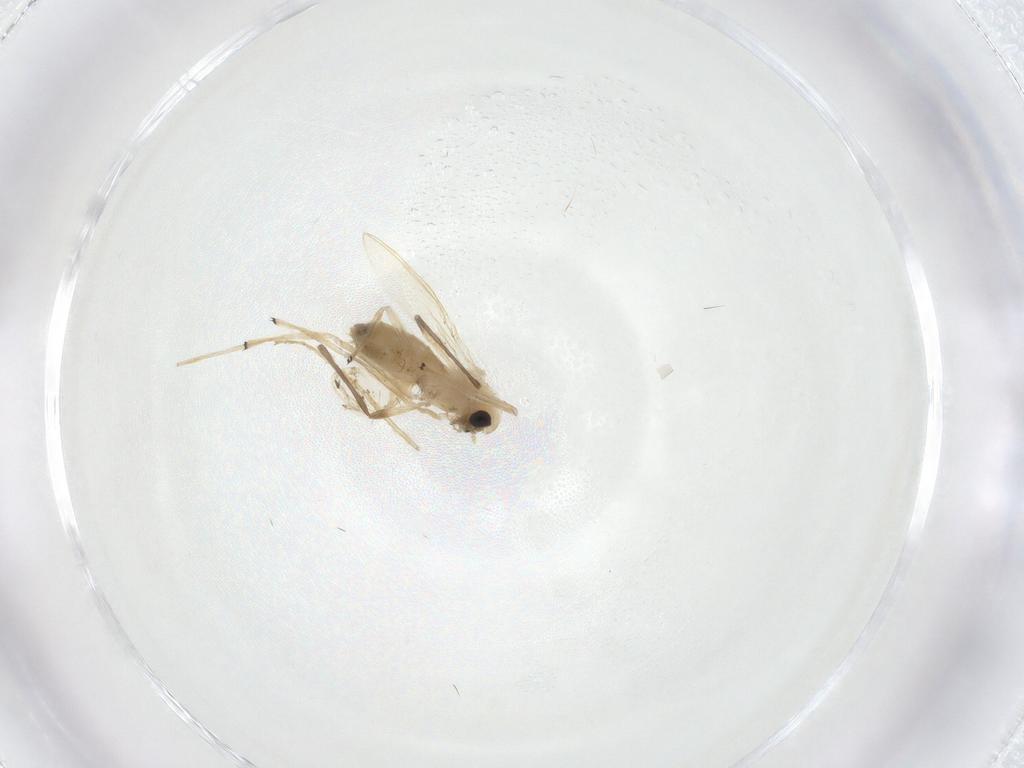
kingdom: Animalia
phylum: Arthropoda
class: Insecta
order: Diptera
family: Chironomidae
